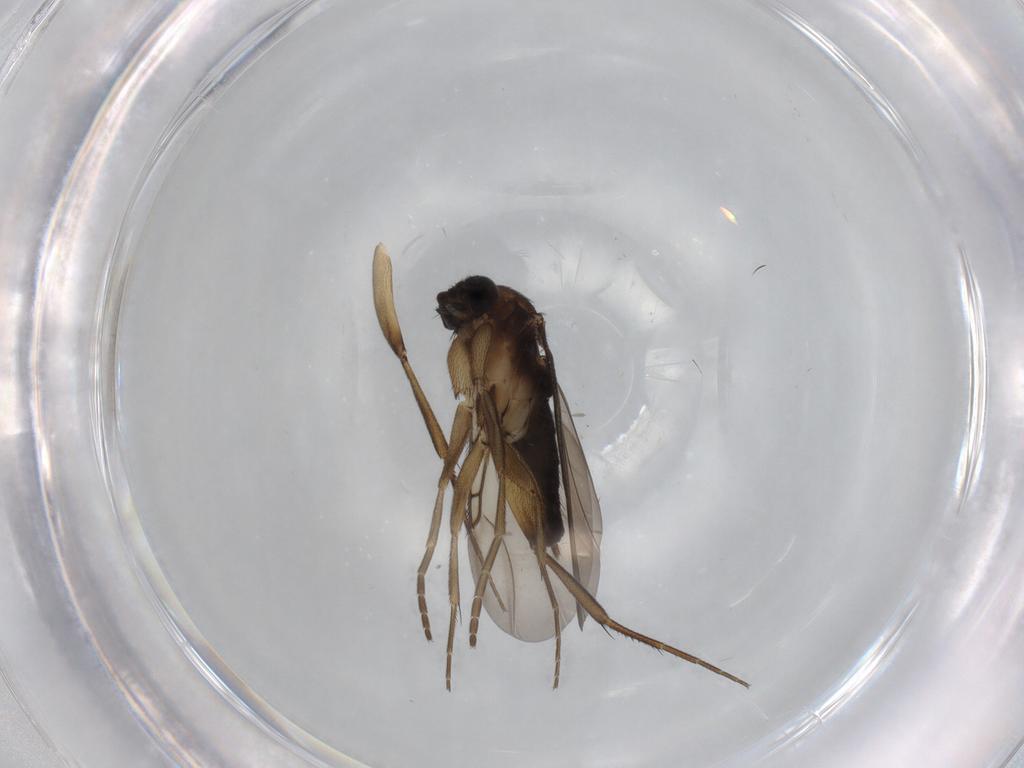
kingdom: Animalia
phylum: Arthropoda
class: Insecta
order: Diptera
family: Phoridae
